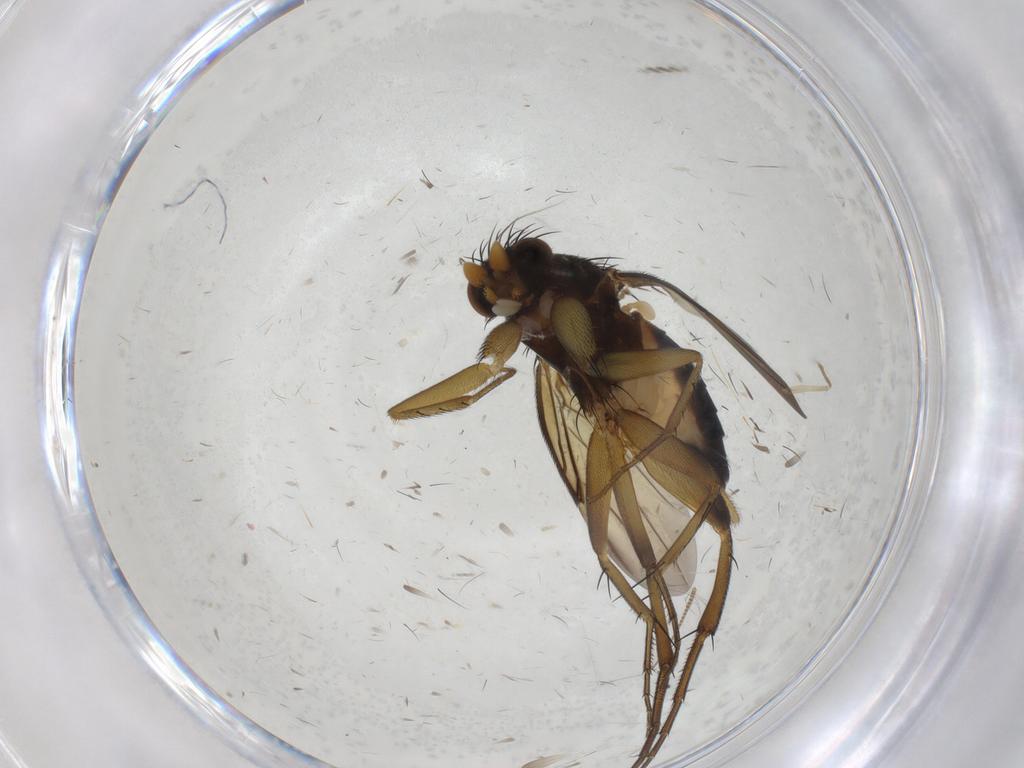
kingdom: Animalia
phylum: Arthropoda
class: Insecta
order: Diptera
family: Phoridae
